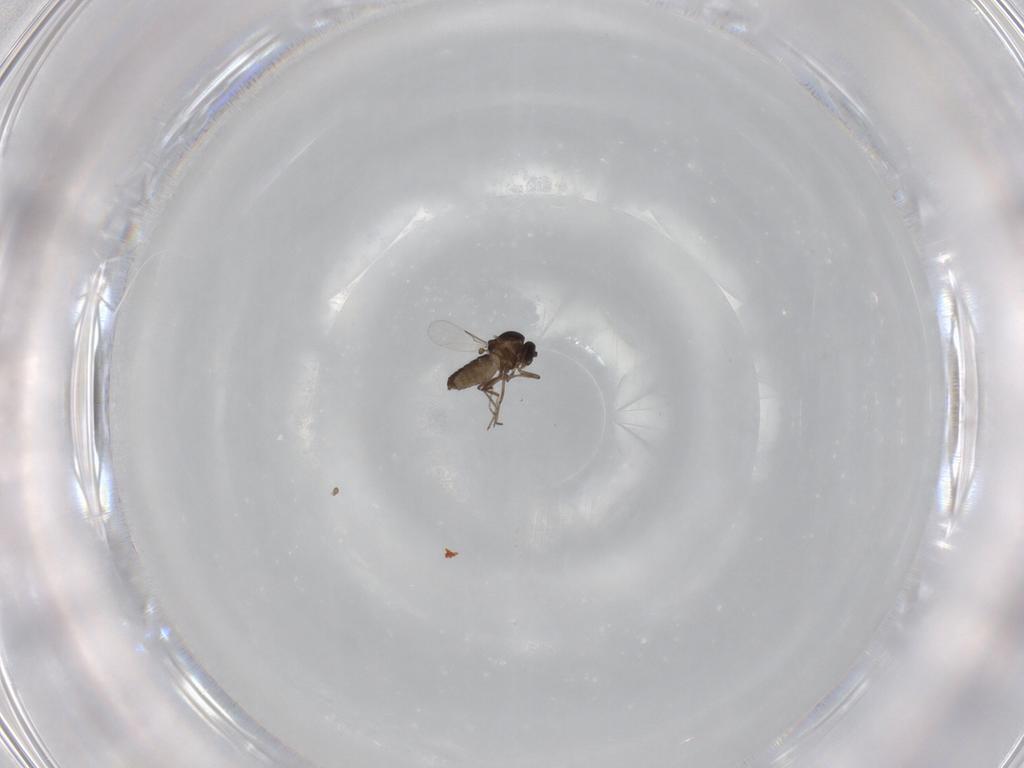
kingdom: Animalia
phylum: Arthropoda
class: Insecta
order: Diptera
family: Ceratopogonidae
